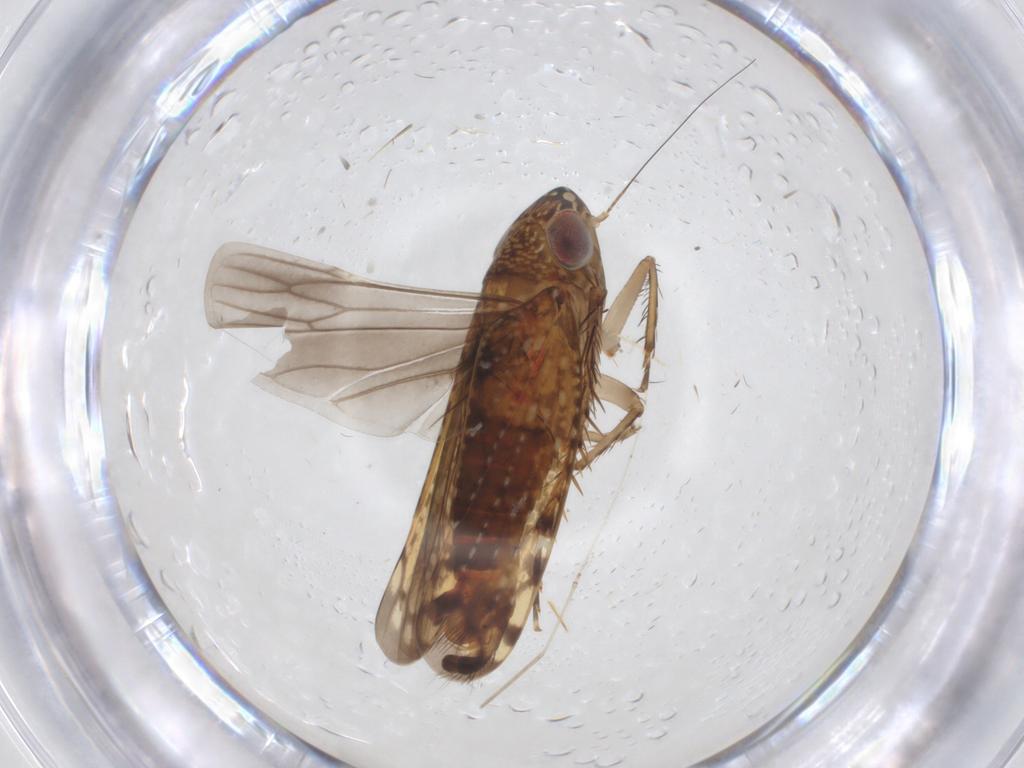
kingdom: Animalia
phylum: Arthropoda
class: Insecta
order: Hemiptera
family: Cicadellidae
